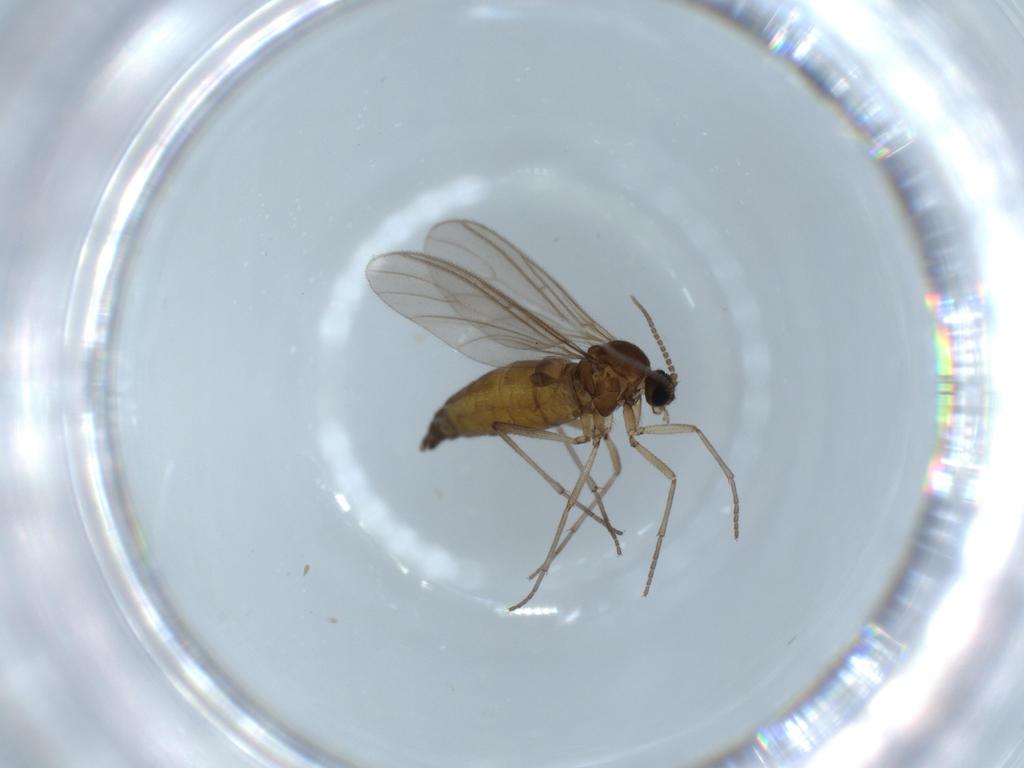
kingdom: Animalia
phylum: Arthropoda
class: Insecta
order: Diptera
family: Sciaridae
